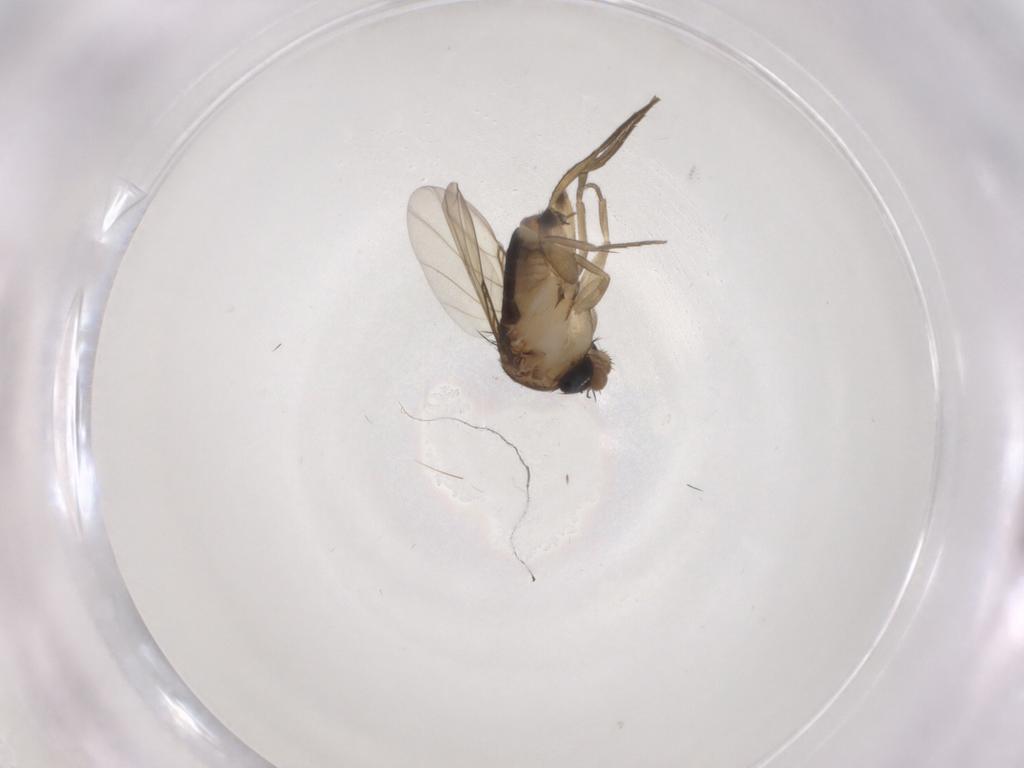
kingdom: Animalia
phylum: Arthropoda
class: Insecta
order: Diptera
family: Phoridae
